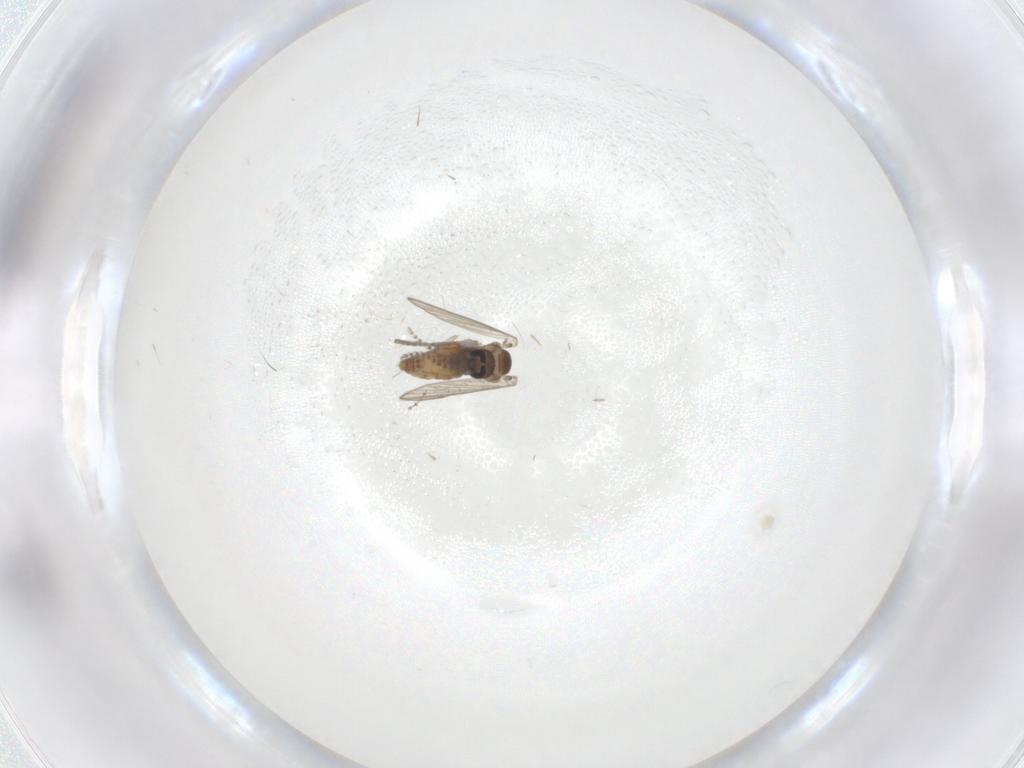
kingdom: Animalia
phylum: Arthropoda
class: Insecta
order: Diptera
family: Psychodidae
